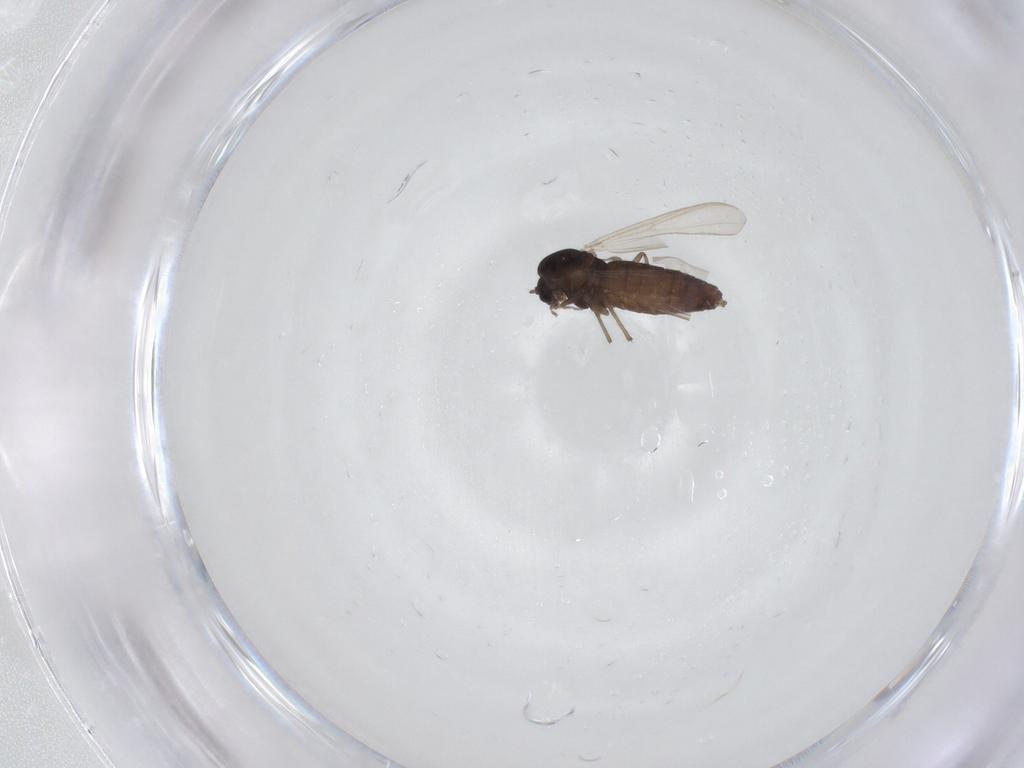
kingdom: Animalia
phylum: Arthropoda
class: Insecta
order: Diptera
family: Chironomidae
